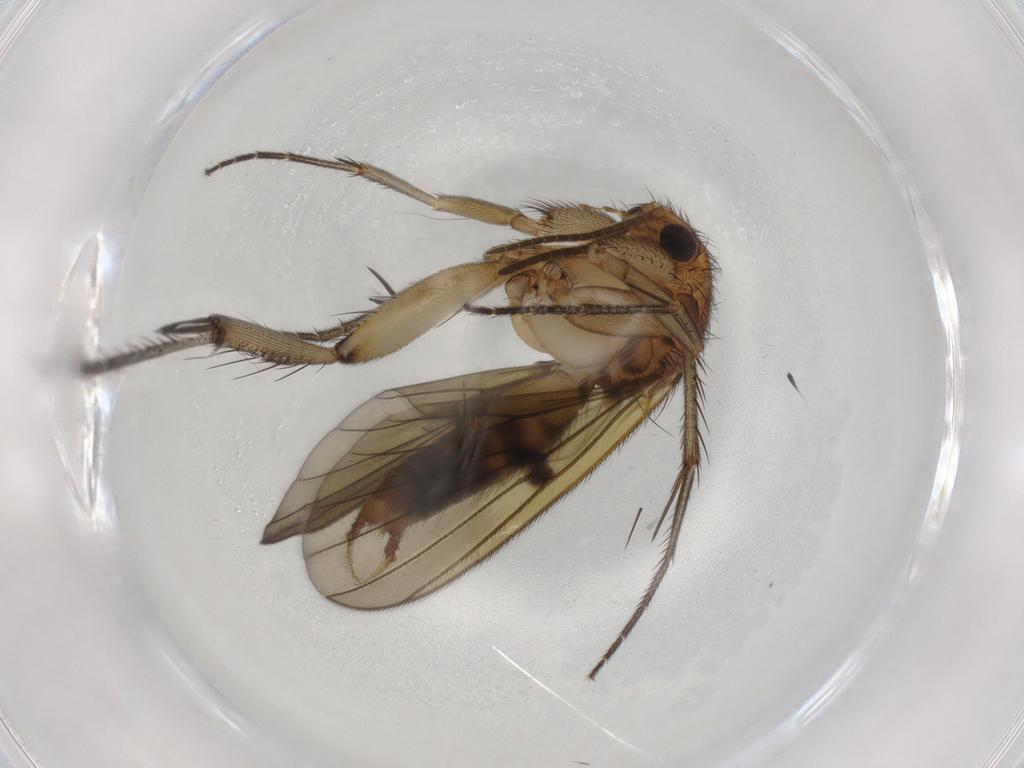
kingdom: Animalia
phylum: Arthropoda
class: Insecta
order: Diptera
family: Mycetophilidae
